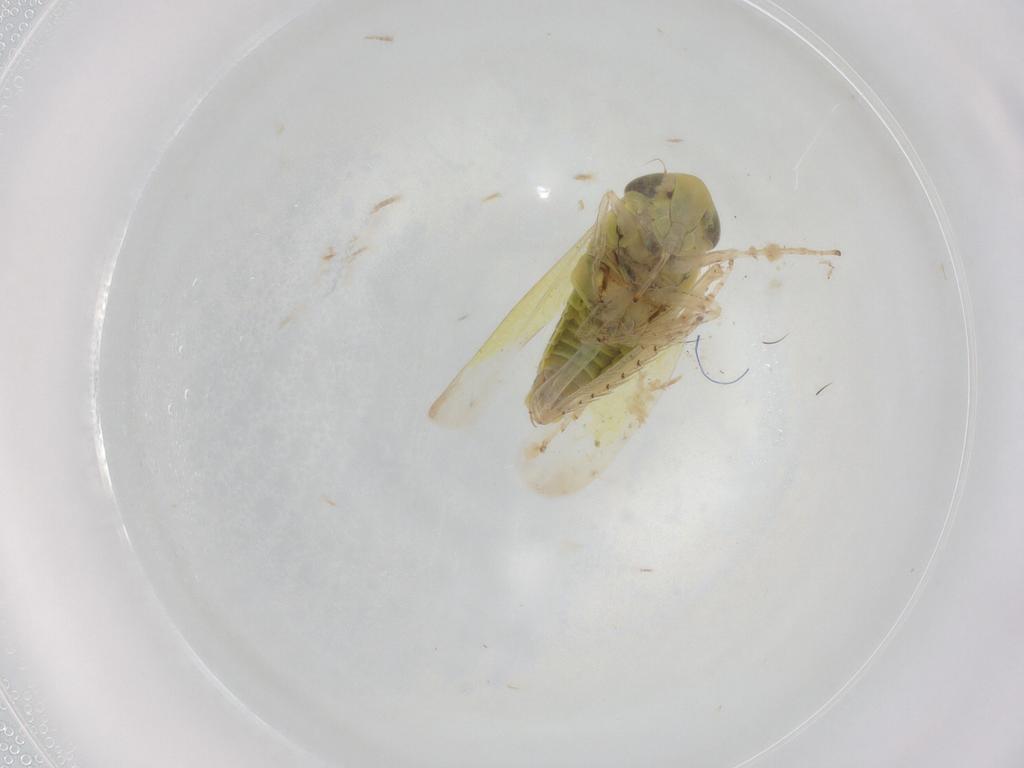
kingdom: Animalia
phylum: Arthropoda
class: Insecta
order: Hemiptera
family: Cicadellidae
